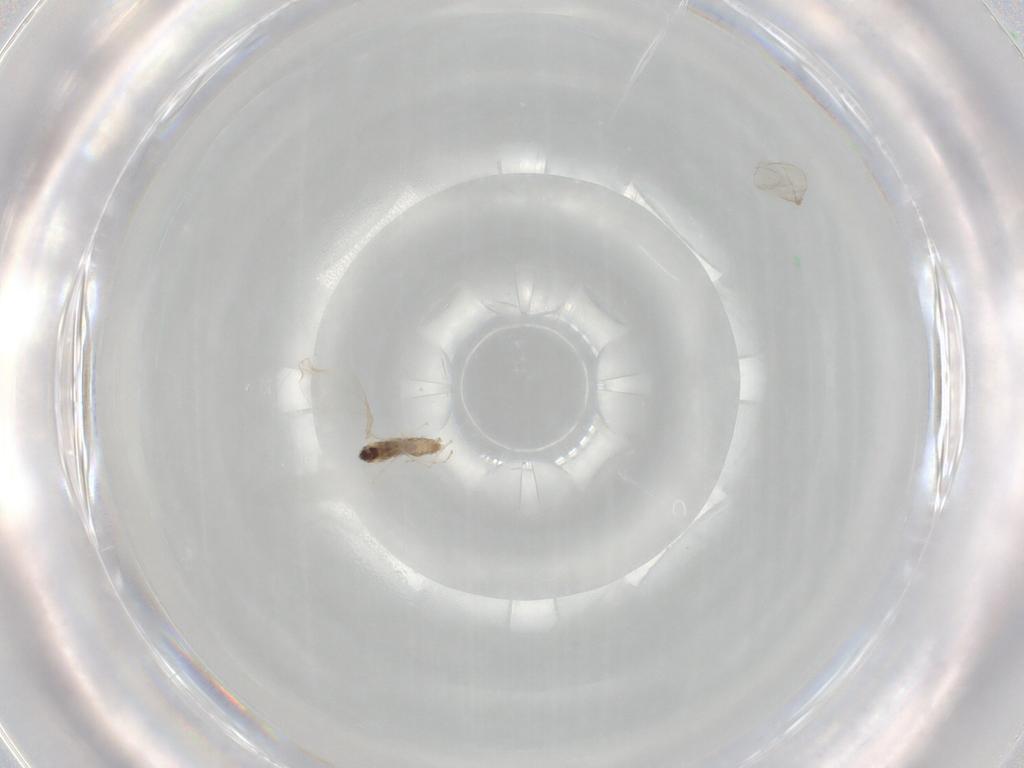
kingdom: Animalia
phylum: Arthropoda
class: Insecta
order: Diptera
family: Cecidomyiidae
